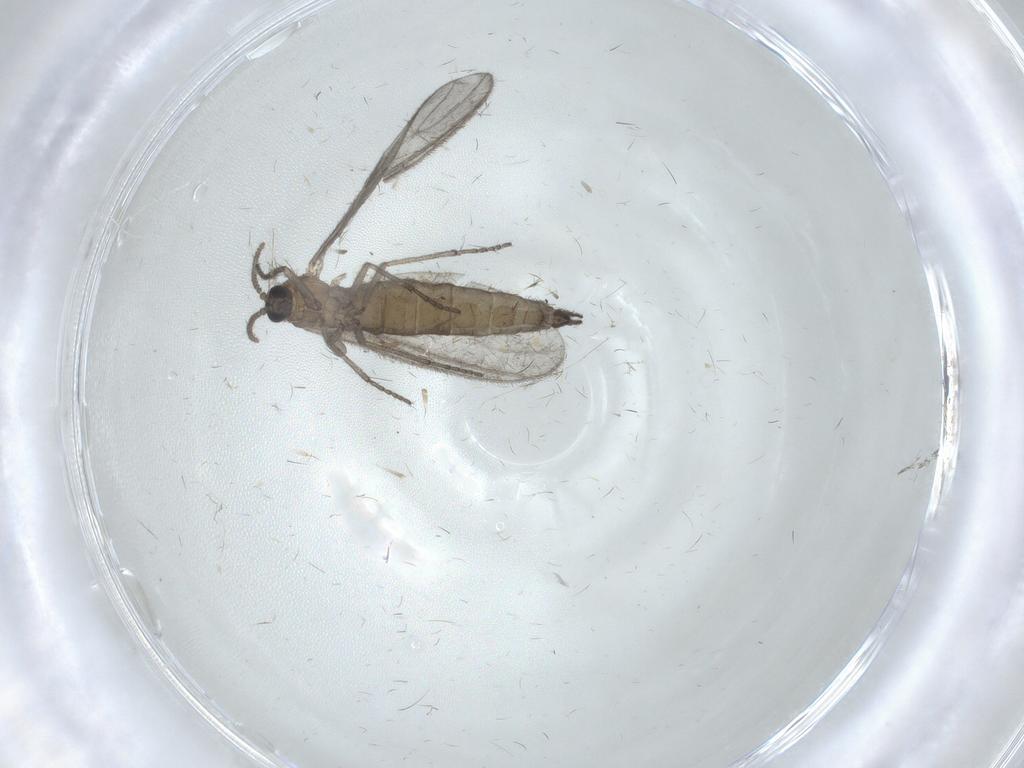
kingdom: Animalia
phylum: Arthropoda
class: Insecta
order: Diptera
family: Sciaridae
